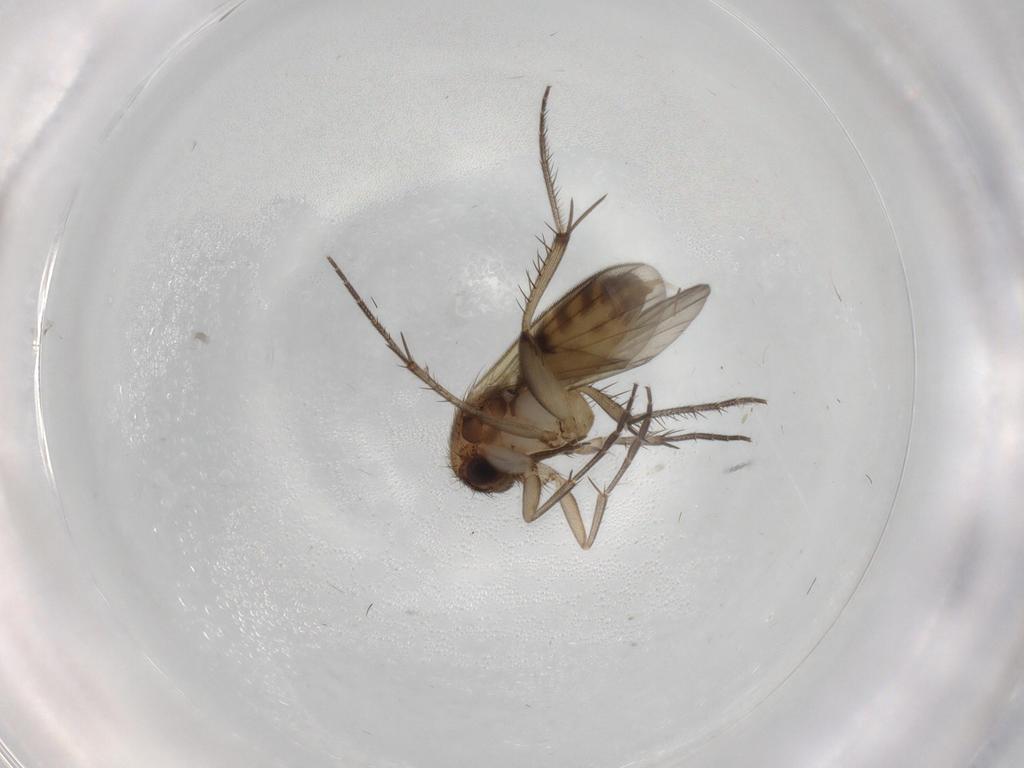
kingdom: Animalia
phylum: Arthropoda
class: Insecta
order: Diptera
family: Mycetophilidae
